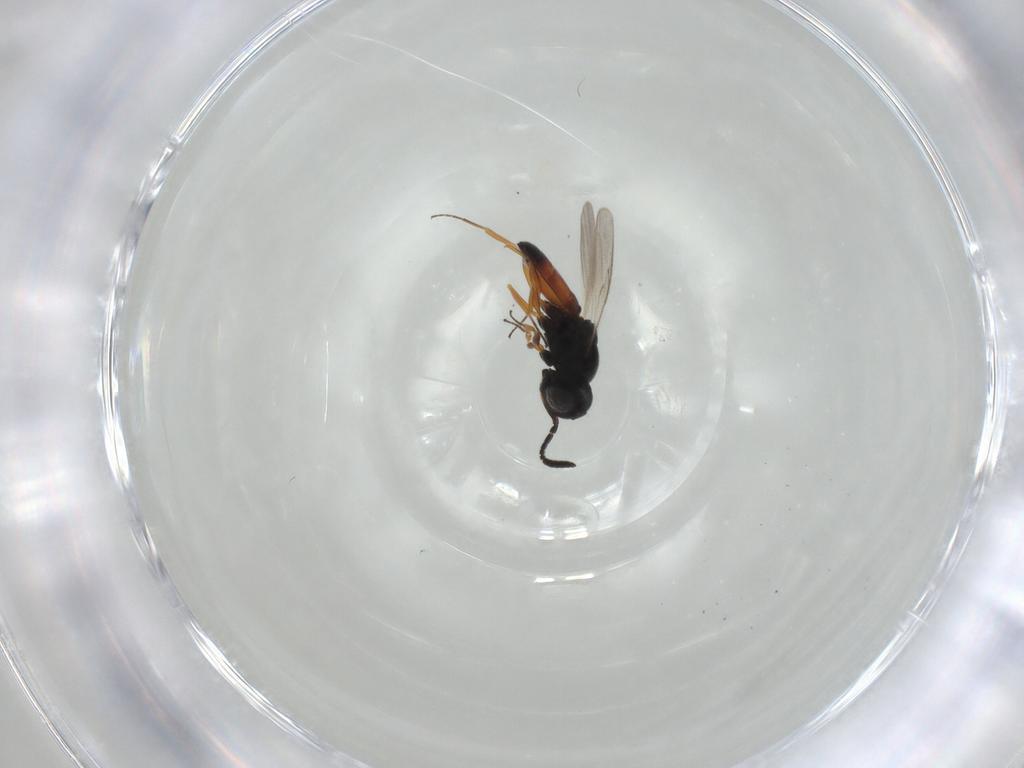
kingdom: Animalia
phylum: Arthropoda
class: Insecta
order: Hymenoptera
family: Scelionidae
